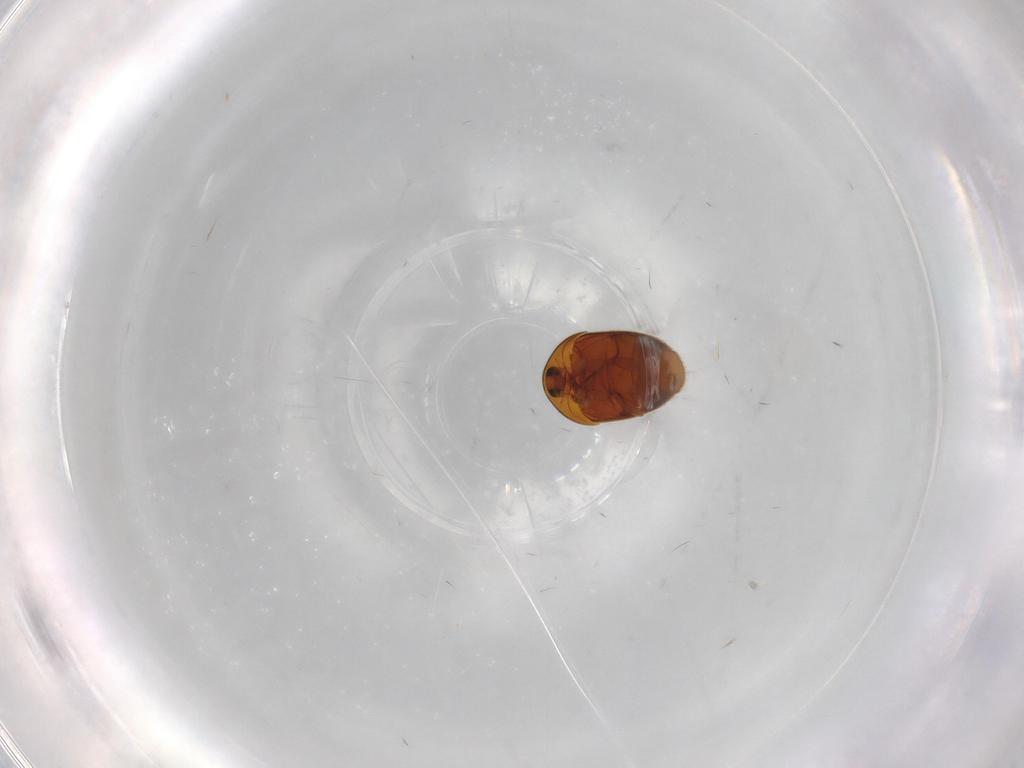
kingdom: Animalia
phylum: Arthropoda
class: Insecta
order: Coleoptera
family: Corylophidae
